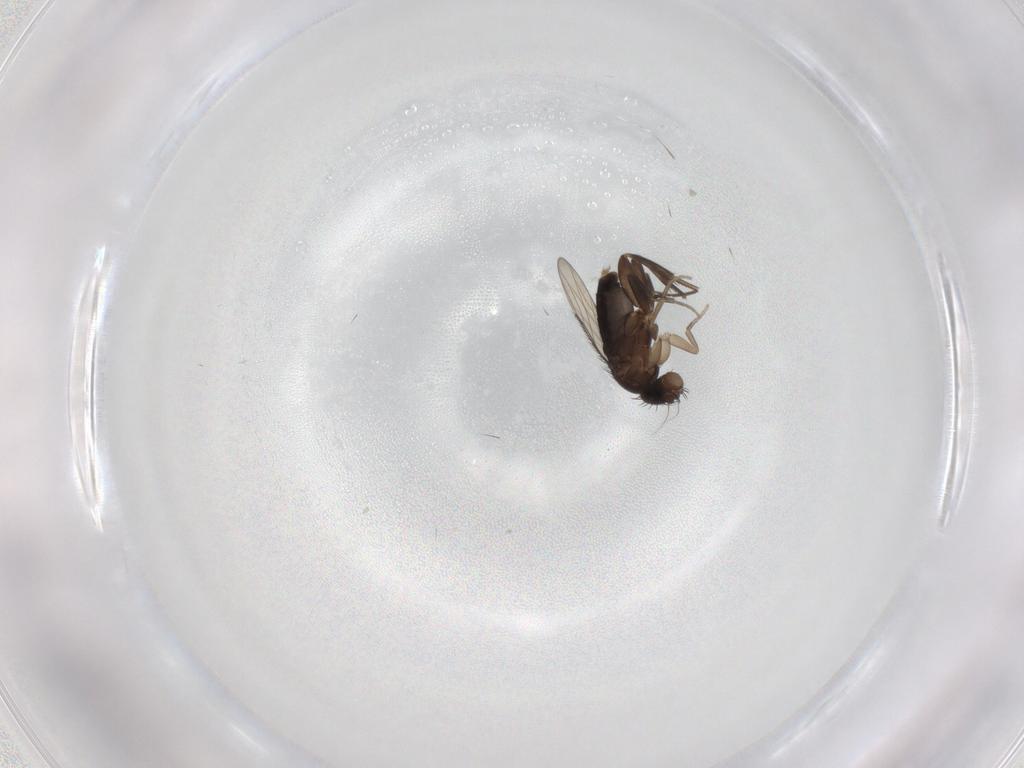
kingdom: Animalia
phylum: Arthropoda
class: Insecta
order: Diptera
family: Phoridae
